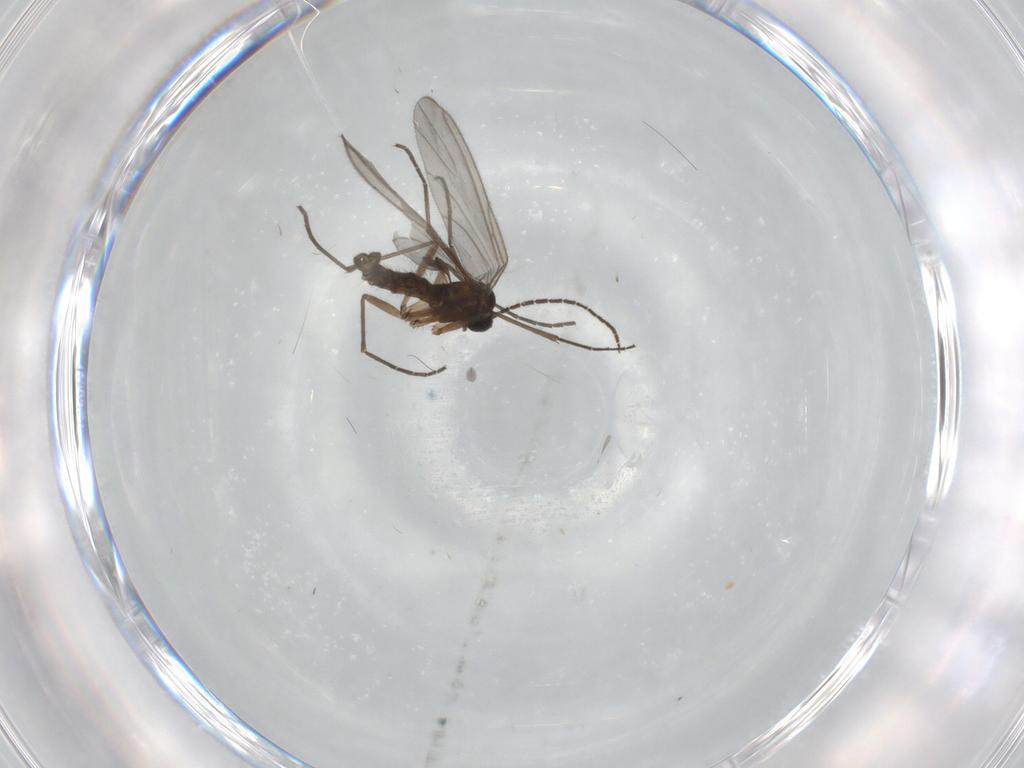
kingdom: Animalia
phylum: Arthropoda
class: Insecta
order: Diptera
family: Sciaridae
